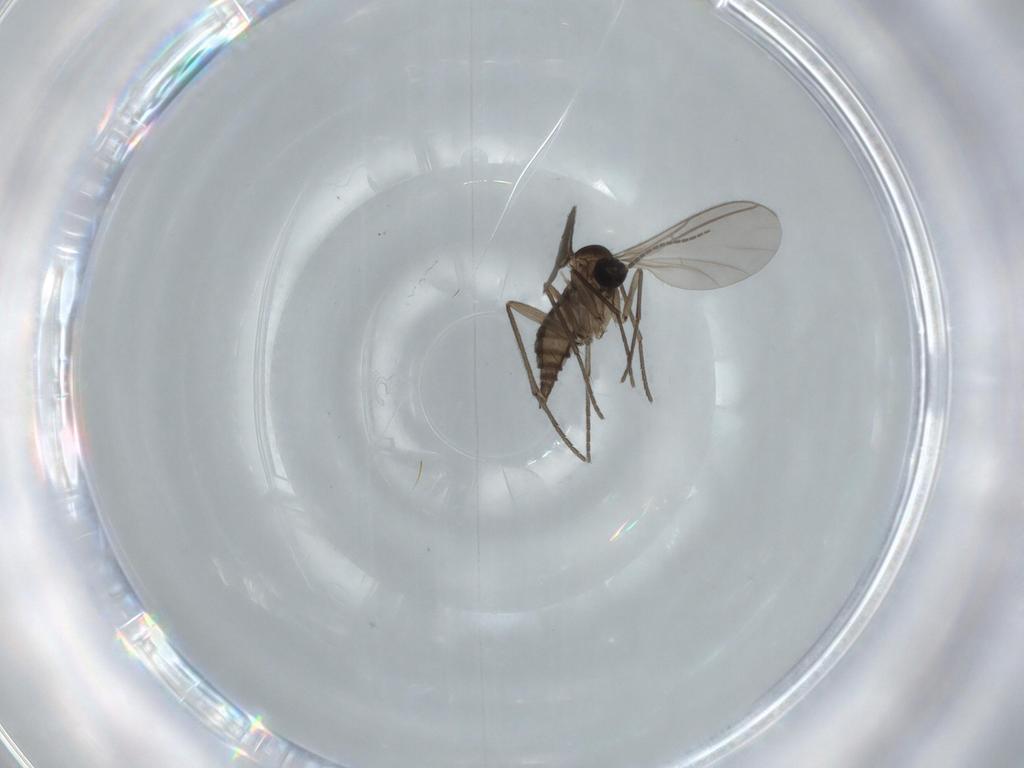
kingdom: Animalia
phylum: Arthropoda
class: Insecta
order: Diptera
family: Sciaridae
